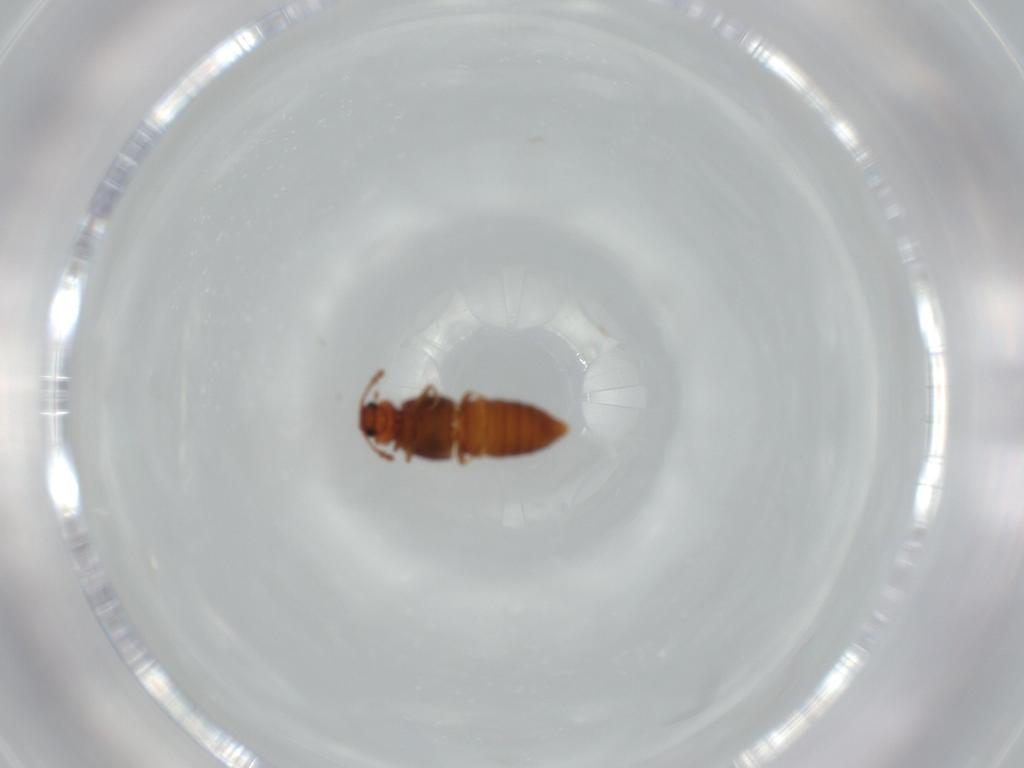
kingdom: Animalia
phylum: Arthropoda
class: Insecta
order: Coleoptera
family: Staphylinidae
